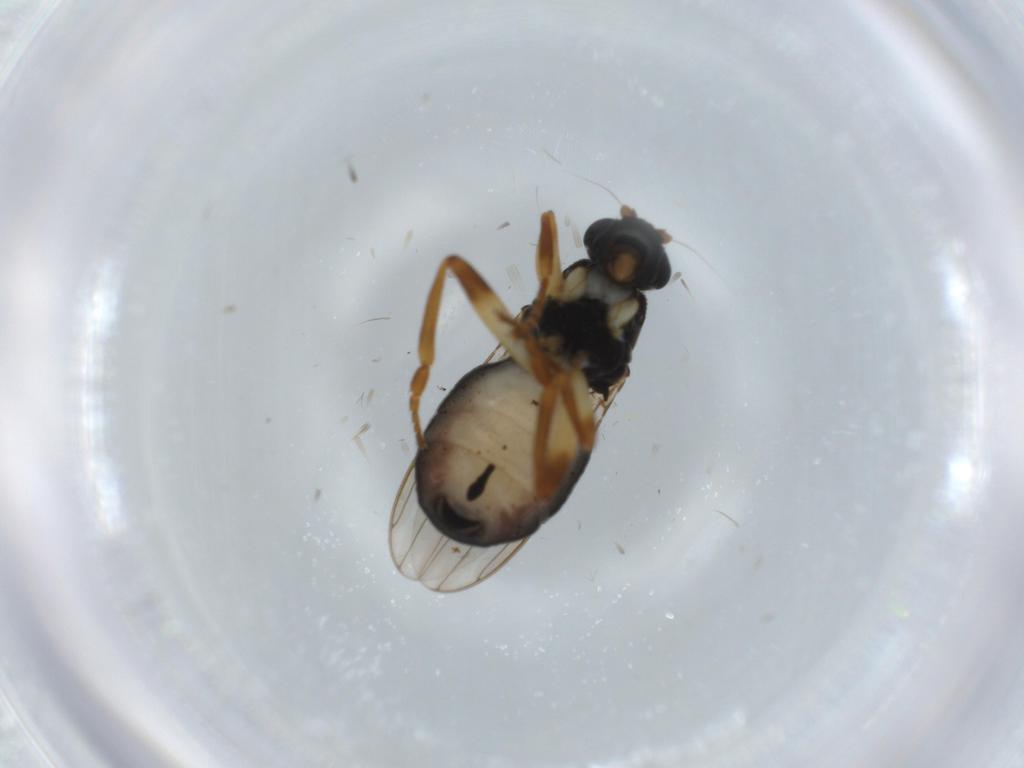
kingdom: Animalia
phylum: Arthropoda
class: Insecta
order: Diptera
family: Sphaeroceridae
